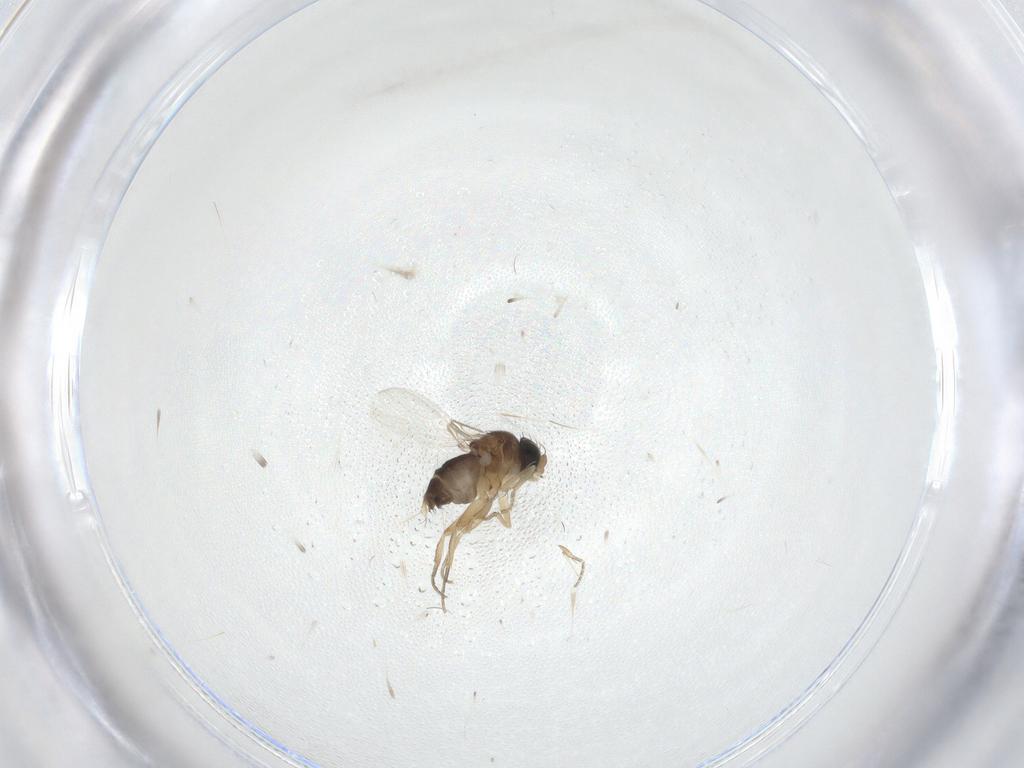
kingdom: Animalia
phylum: Arthropoda
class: Insecta
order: Diptera
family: Phoridae
